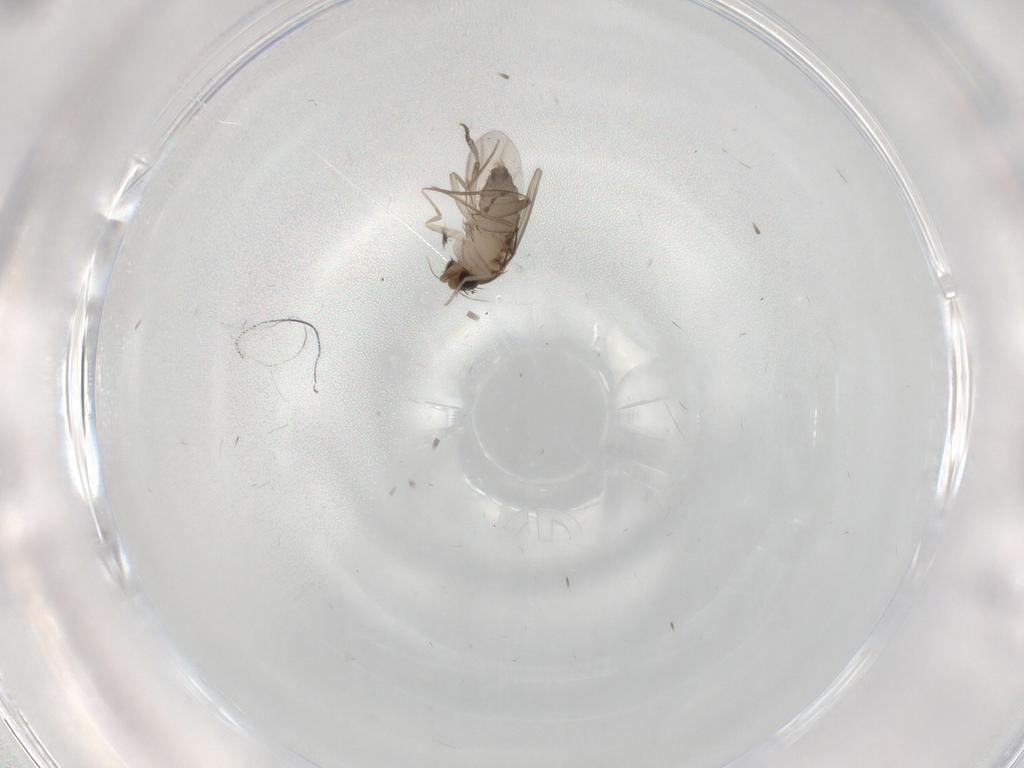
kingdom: Animalia
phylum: Arthropoda
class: Insecta
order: Diptera
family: Phoridae
